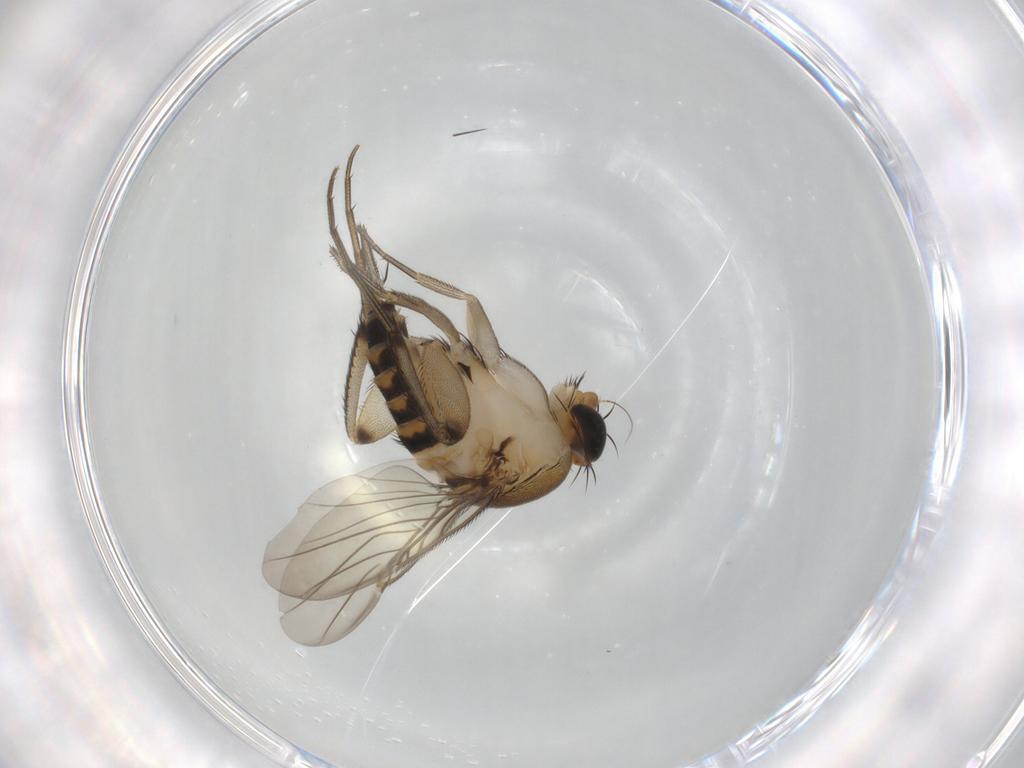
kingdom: Animalia
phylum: Arthropoda
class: Insecta
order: Diptera
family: Phoridae
